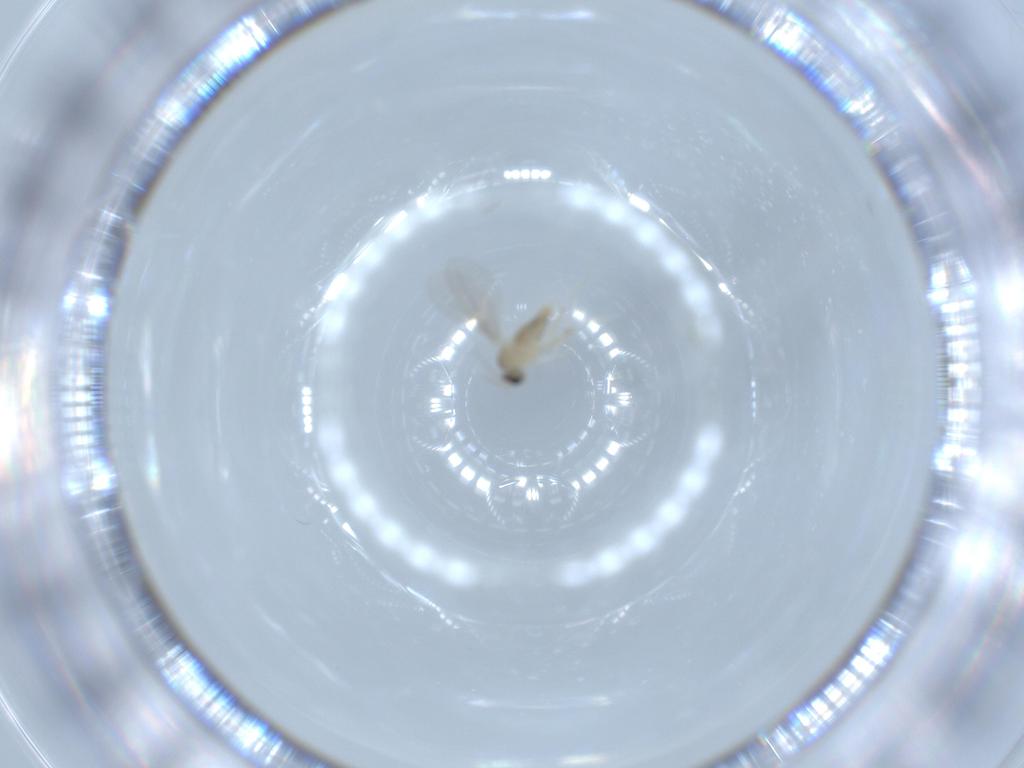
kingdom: Animalia
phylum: Arthropoda
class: Insecta
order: Diptera
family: Cecidomyiidae
